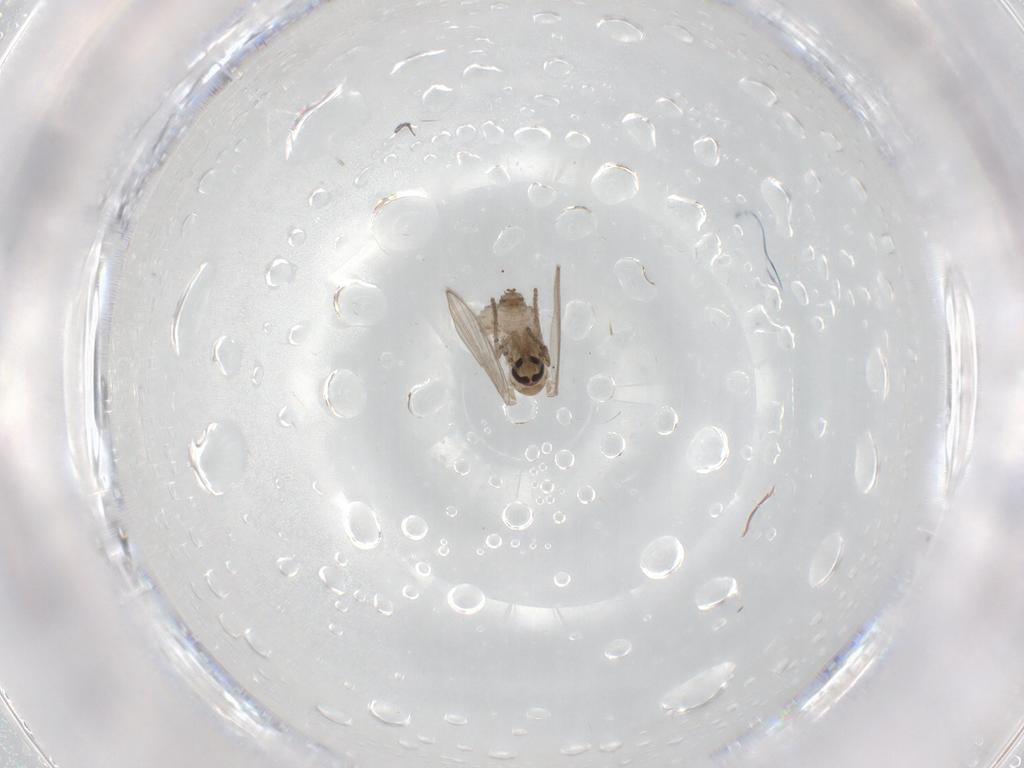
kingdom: Animalia
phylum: Arthropoda
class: Insecta
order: Diptera
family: Psychodidae
